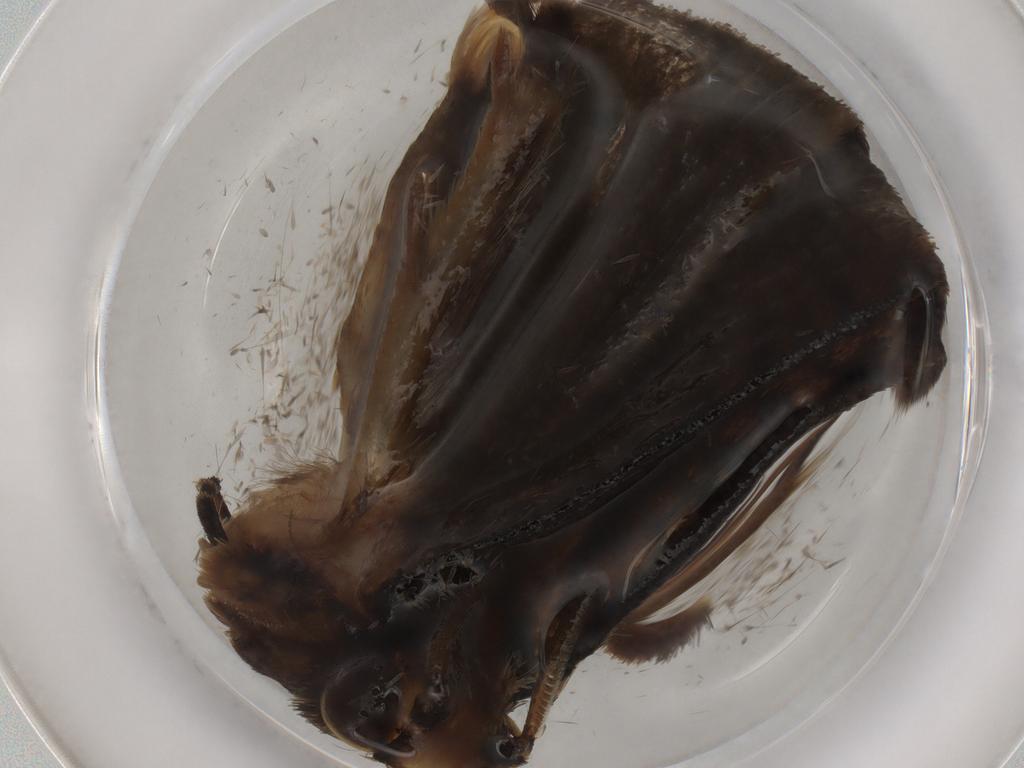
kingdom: Animalia
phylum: Arthropoda
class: Insecta
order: Lepidoptera
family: Tineidae
